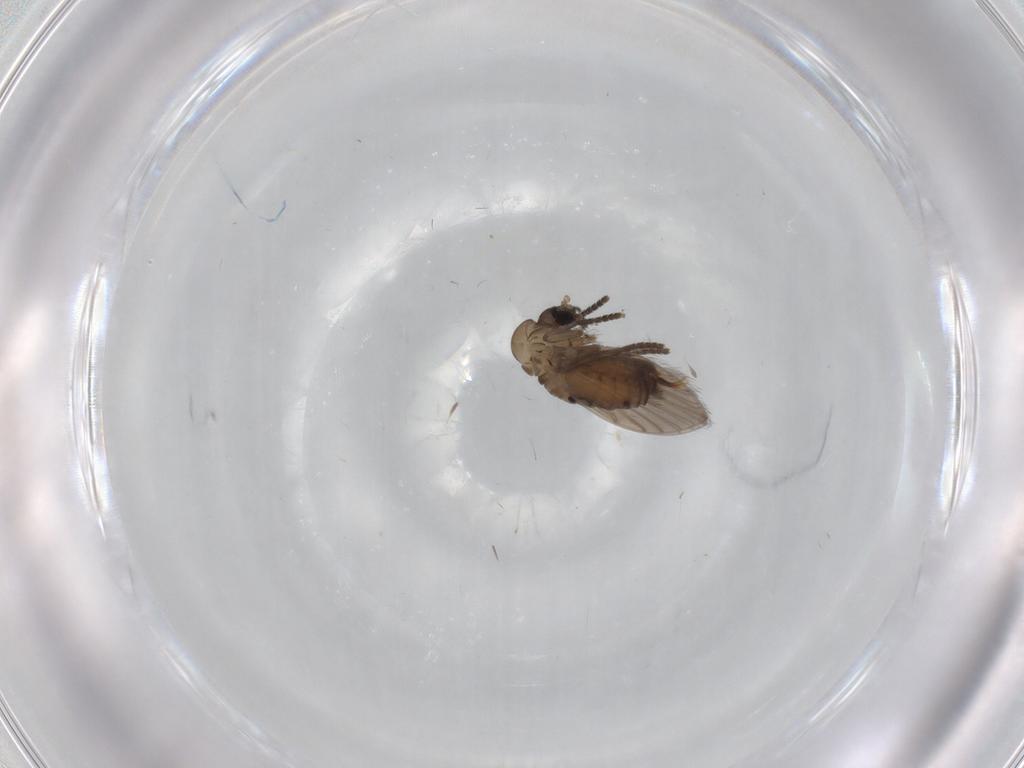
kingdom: Animalia
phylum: Arthropoda
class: Insecta
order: Diptera
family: Psychodidae
